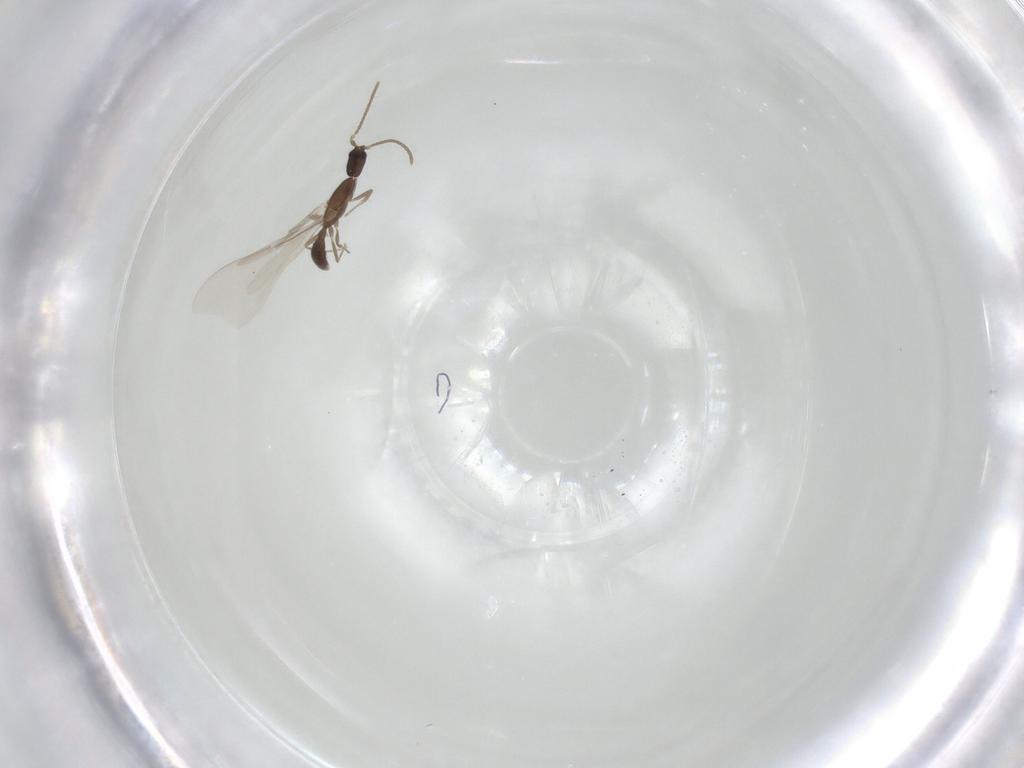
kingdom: Animalia
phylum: Arthropoda
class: Insecta
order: Hymenoptera
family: Formicidae
